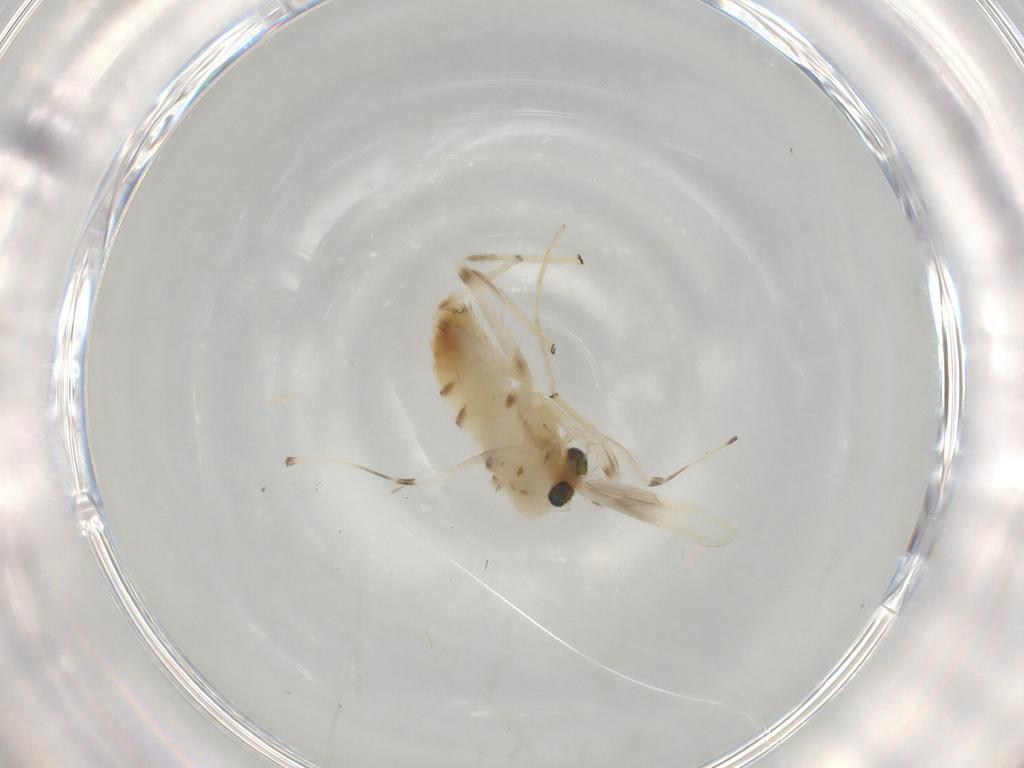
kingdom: Animalia
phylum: Arthropoda
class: Insecta
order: Diptera
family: Chironomidae
